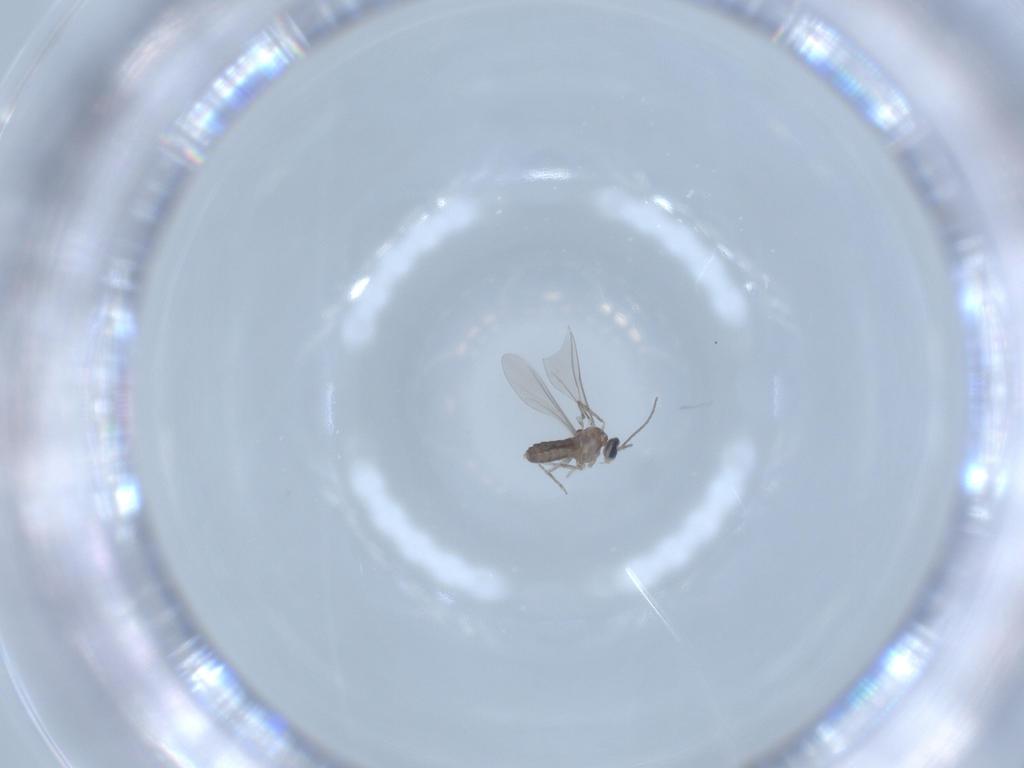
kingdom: Animalia
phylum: Arthropoda
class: Insecta
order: Diptera
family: Cecidomyiidae
